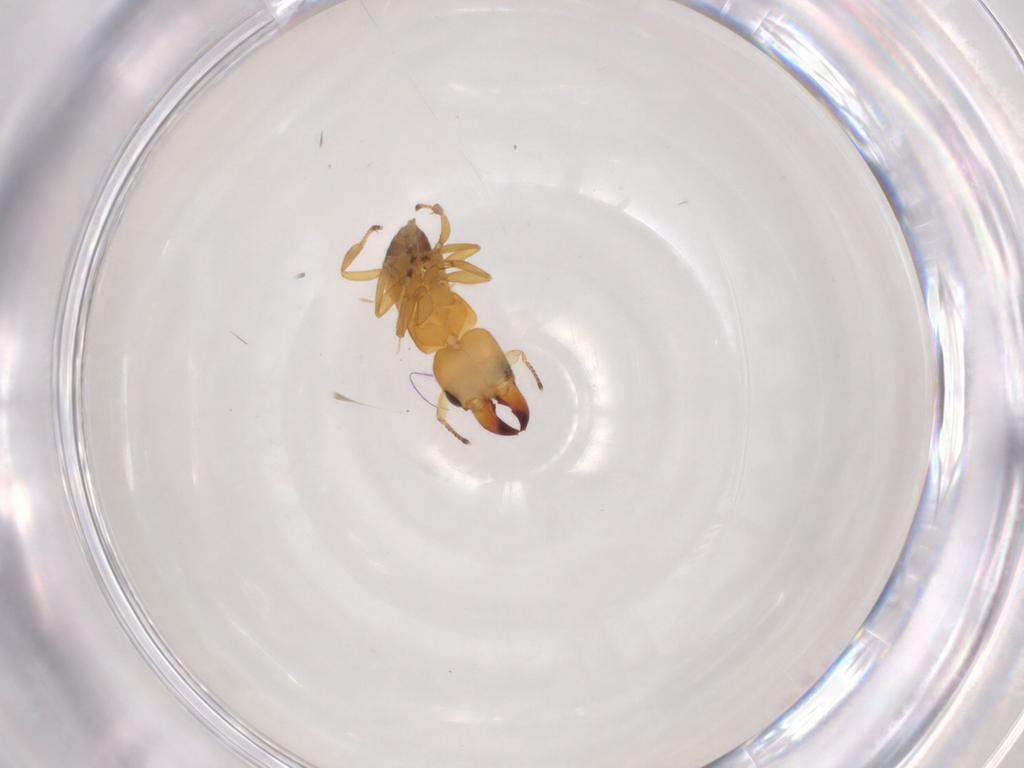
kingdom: Animalia
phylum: Arthropoda
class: Insecta
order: Hymenoptera
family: Pteromalidae
